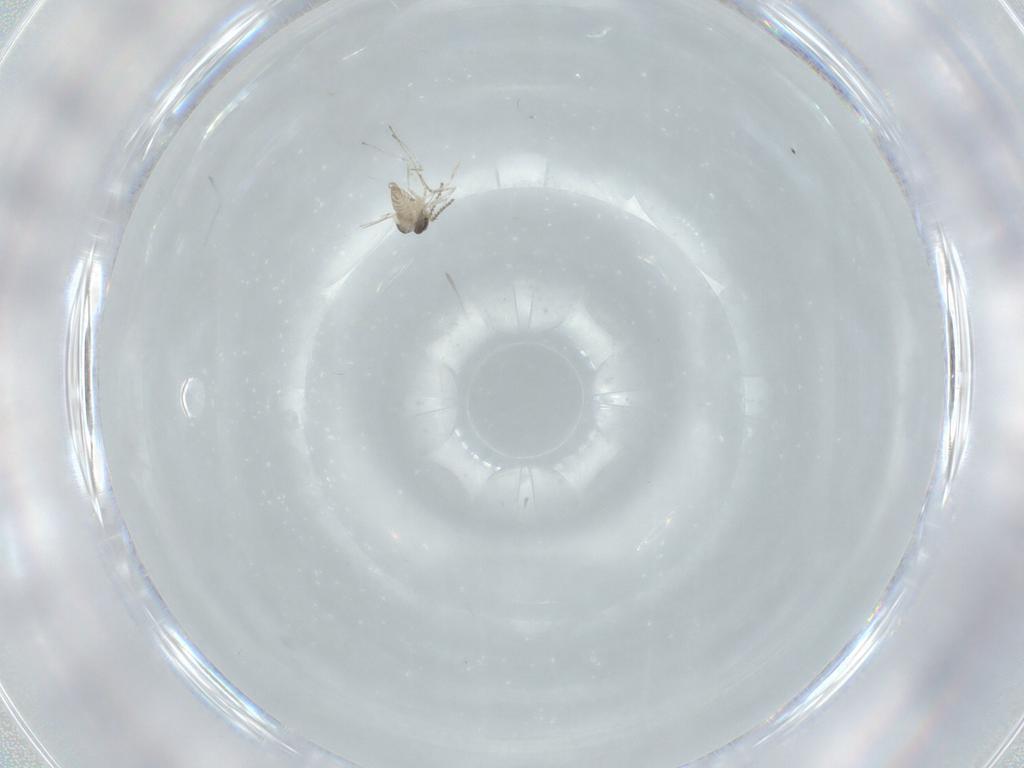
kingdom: Animalia
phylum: Arthropoda
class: Insecta
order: Diptera
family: Cecidomyiidae
